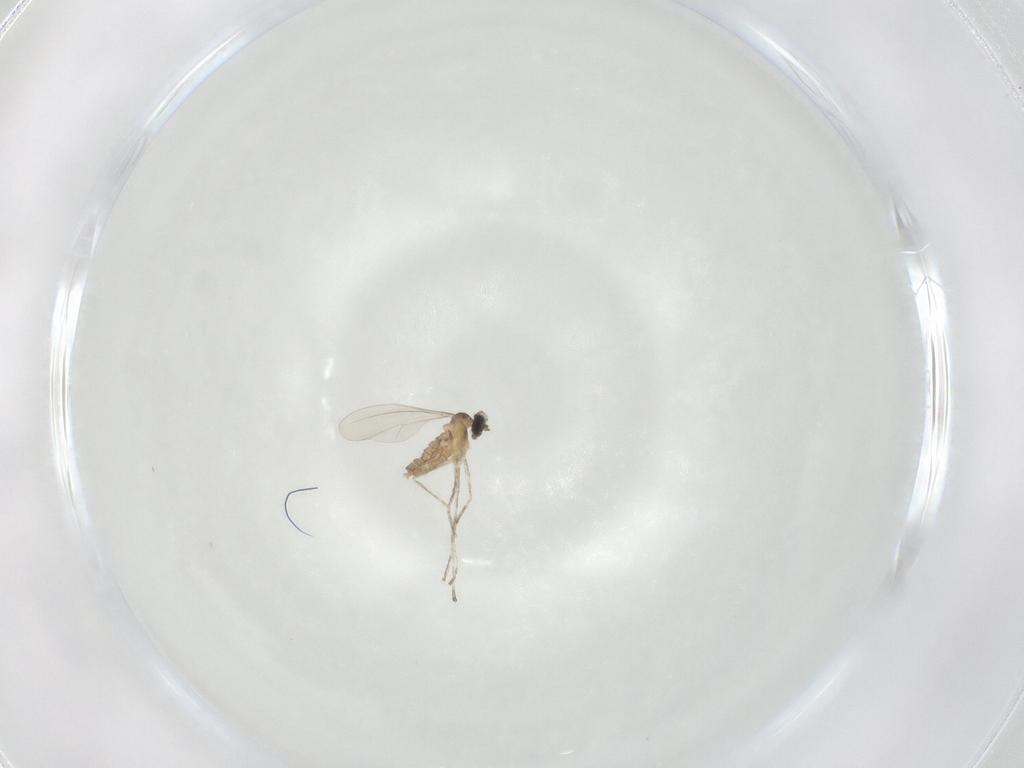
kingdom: Animalia
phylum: Arthropoda
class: Insecta
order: Diptera
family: Cecidomyiidae
